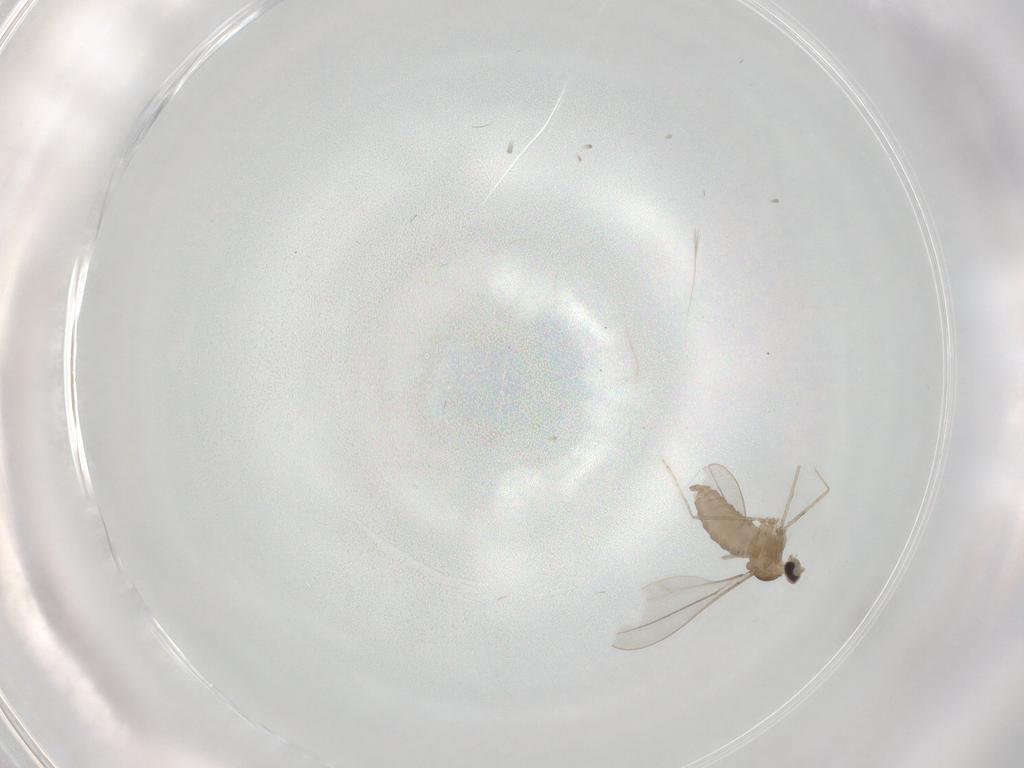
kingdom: Animalia
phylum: Arthropoda
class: Insecta
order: Diptera
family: Cecidomyiidae
